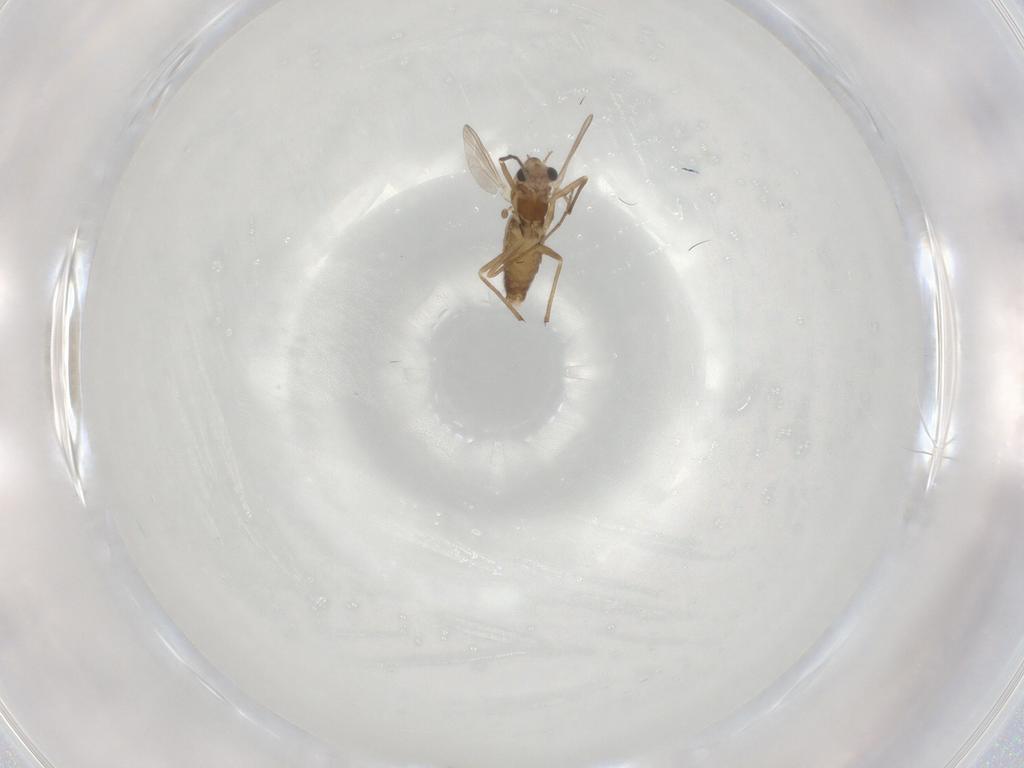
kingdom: Animalia
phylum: Arthropoda
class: Insecta
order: Diptera
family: Chironomidae
